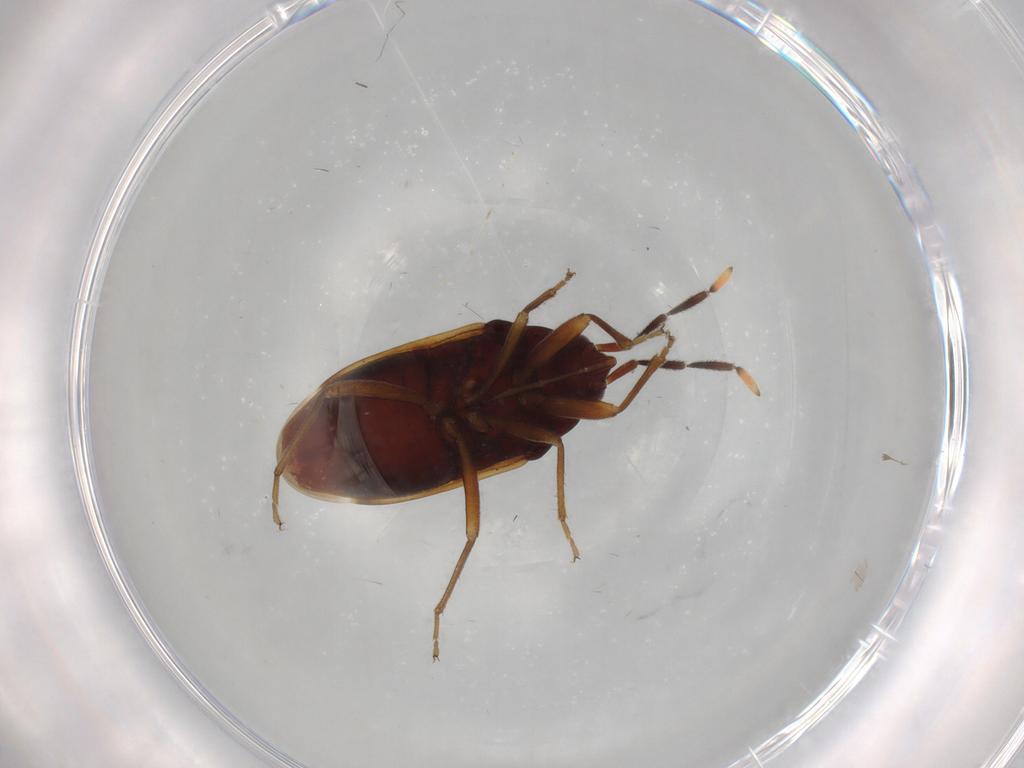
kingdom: Animalia
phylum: Arthropoda
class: Insecta
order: Hemiptera
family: Rhyparochromidae
